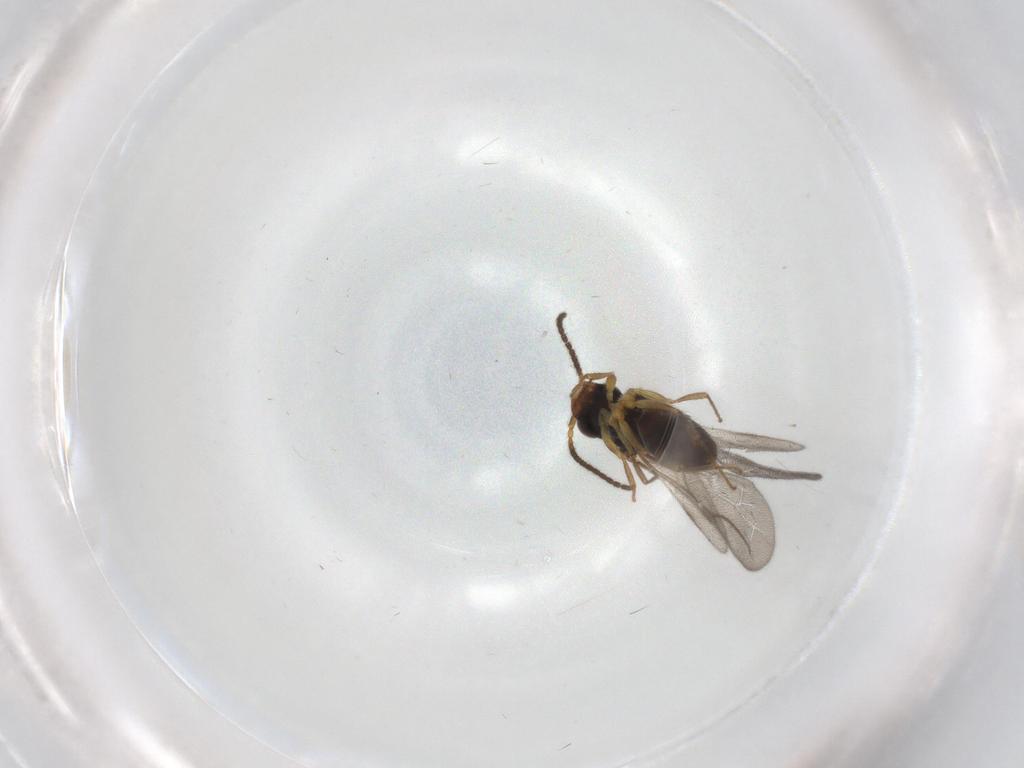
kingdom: Animalia
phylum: Arthropoda
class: Insecta
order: Hymenoptera
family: Bethylidae
